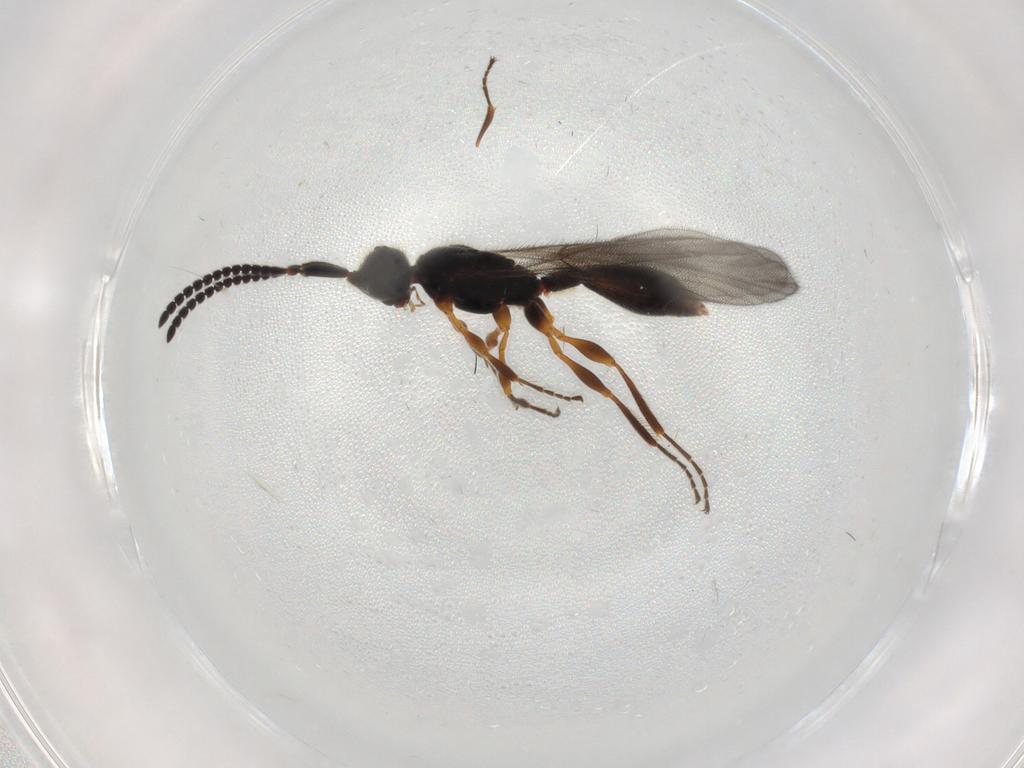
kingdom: Animalia
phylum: Arthropoda
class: Insecta
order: Hymenoptera
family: Diapriidae
